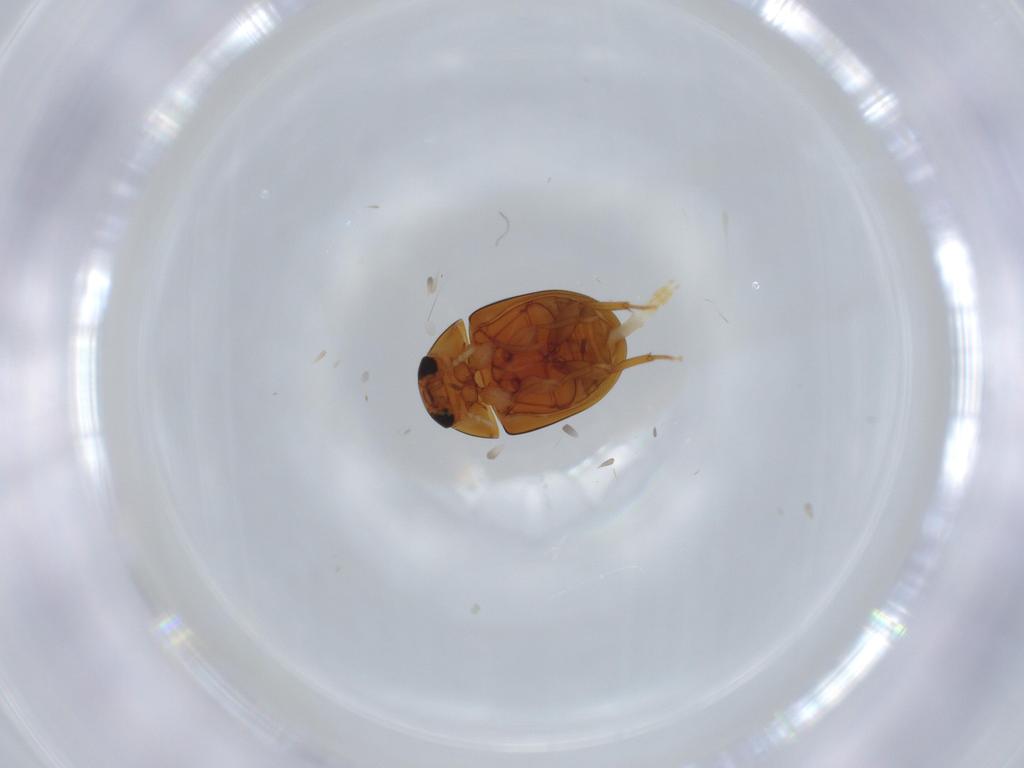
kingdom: Animalia
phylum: Arthropoda
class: Insecta
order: Coleoptera
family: Phalacridae
